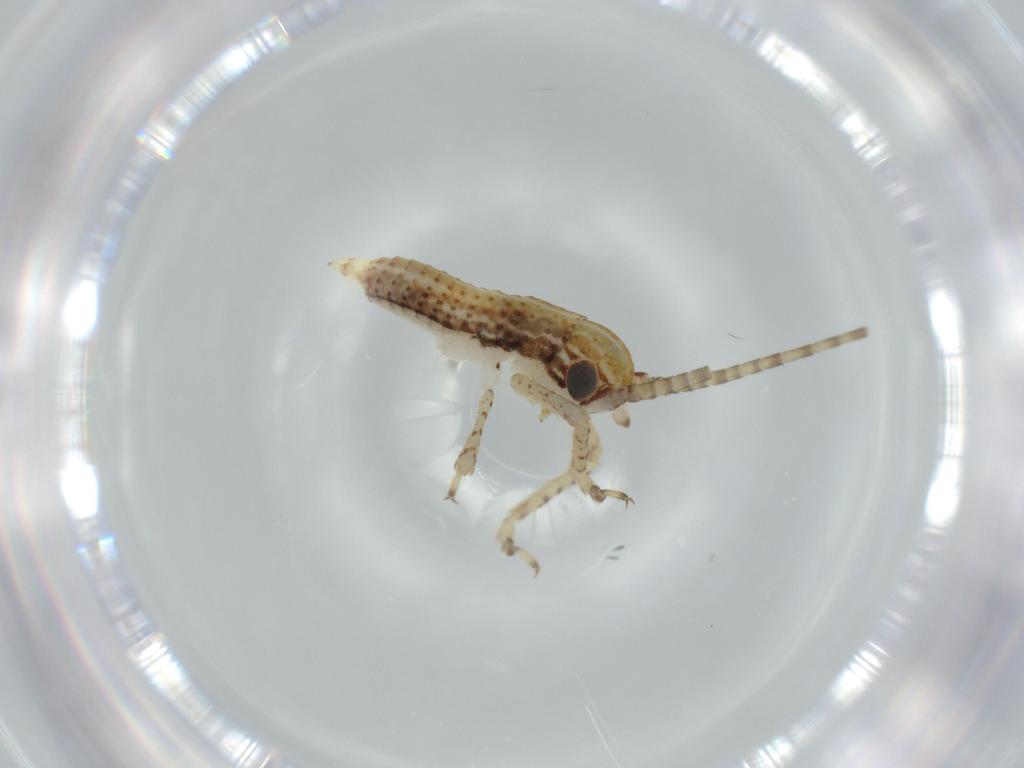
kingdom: Animalia
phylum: Arthropoda
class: Insecta
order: Orthoptera
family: Gryllidae
